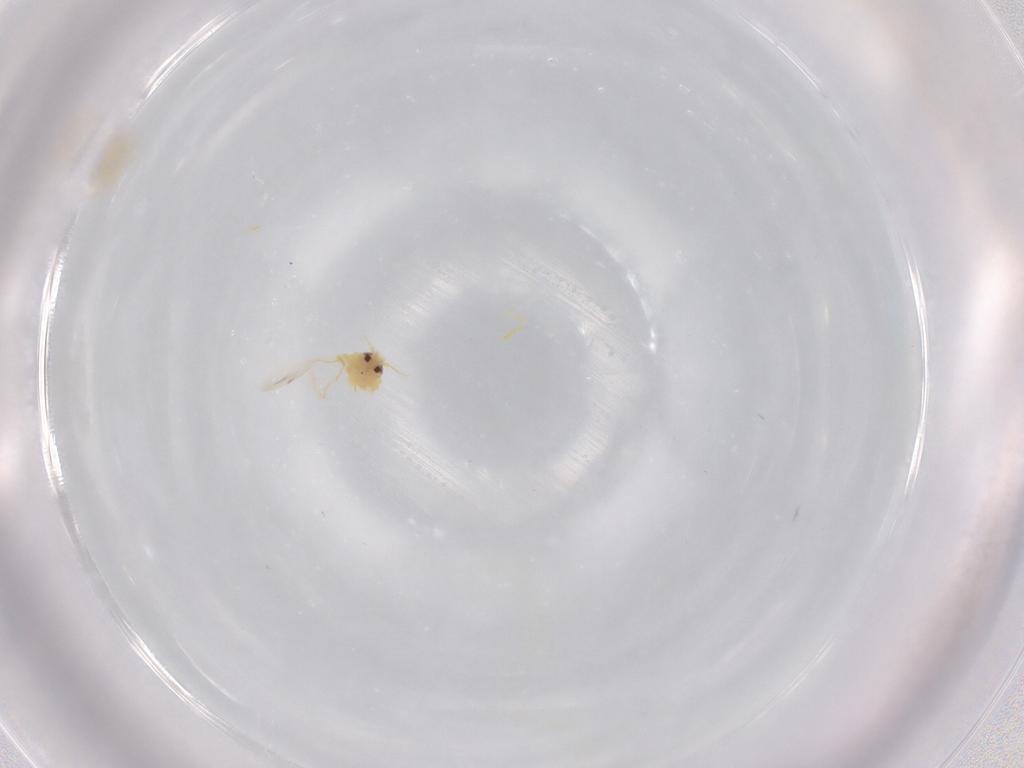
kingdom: Animalia
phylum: Arthropoda
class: Insecta
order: Hemiptera
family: Aleyrodidae
